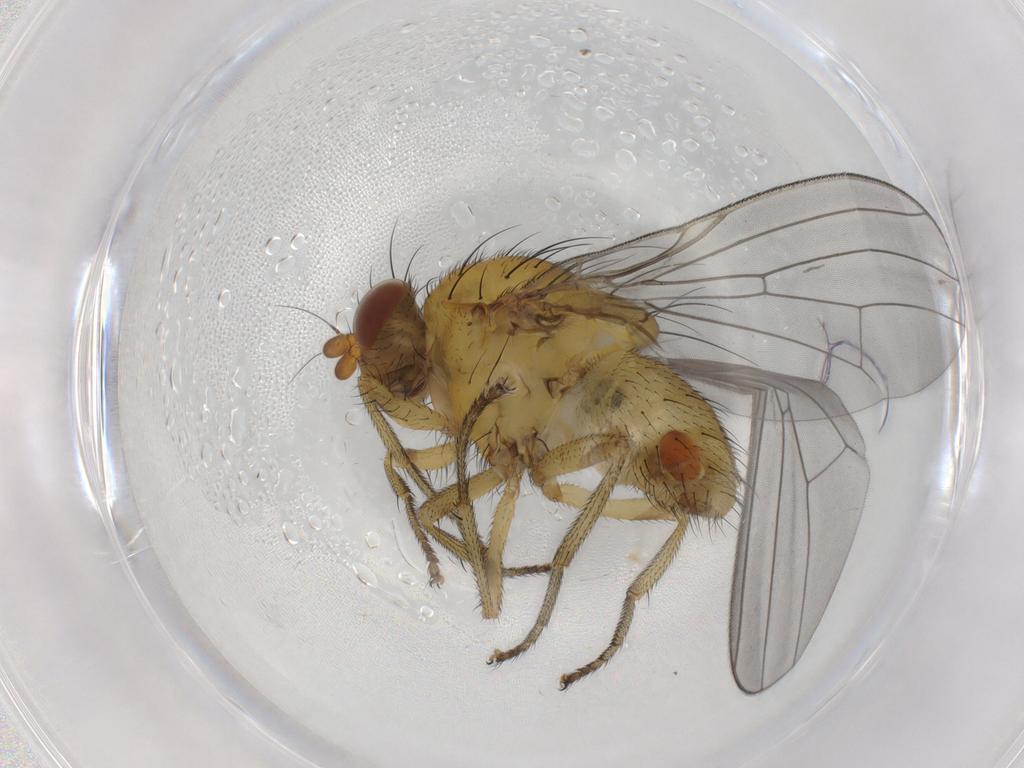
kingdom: Animalia
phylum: Arthropoda
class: Insecta
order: Diptera
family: Lauxaniidae
